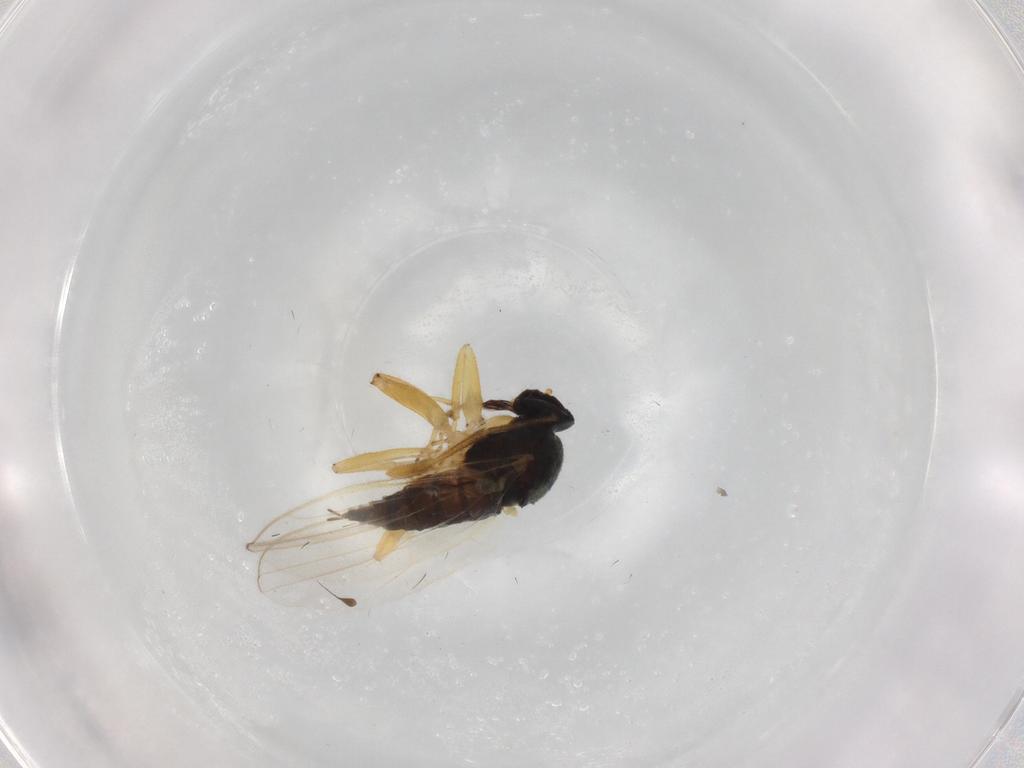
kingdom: Animalia
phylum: Arthropoda
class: Insecta
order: Diptera
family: Hybotidae
